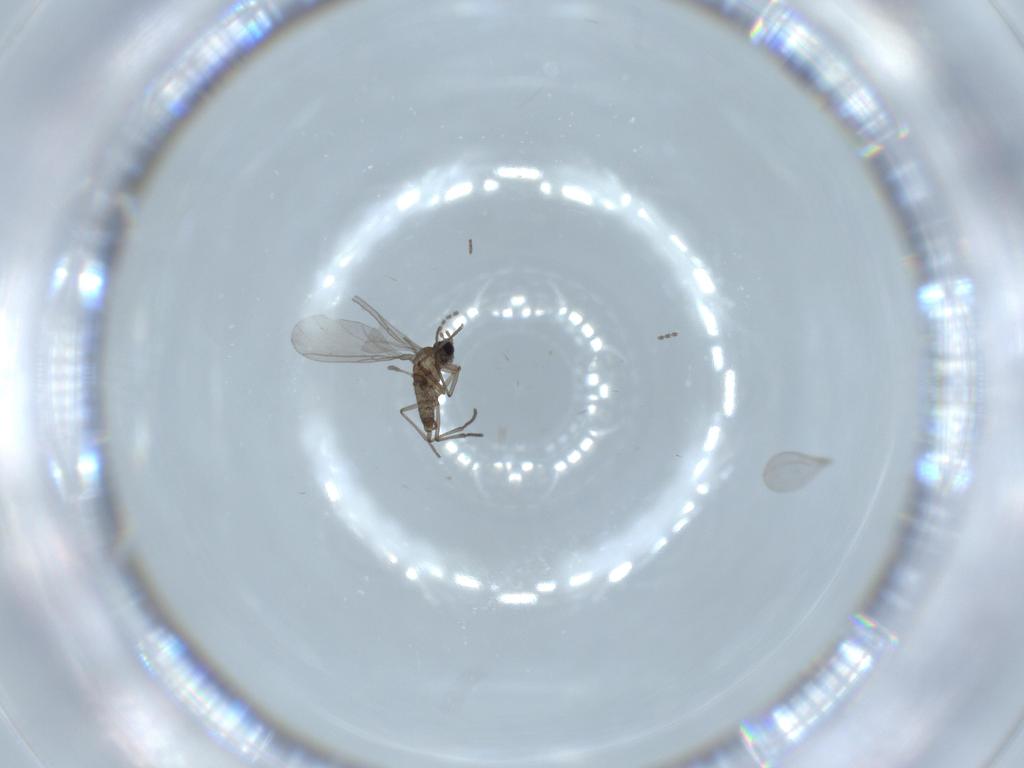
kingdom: Animalia
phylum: Arthropoda
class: Insecta
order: Diptera
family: Sciaridae
